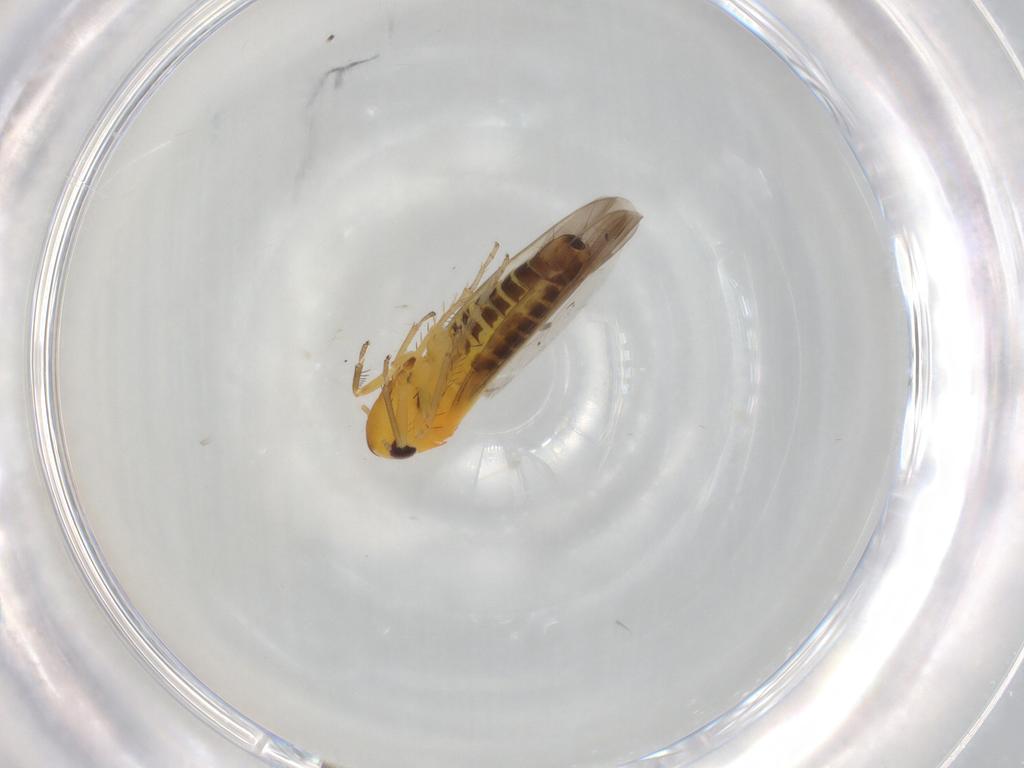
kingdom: Animalia
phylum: Arthropoda
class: Insecta
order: Hemiptera
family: Cicadellidae
